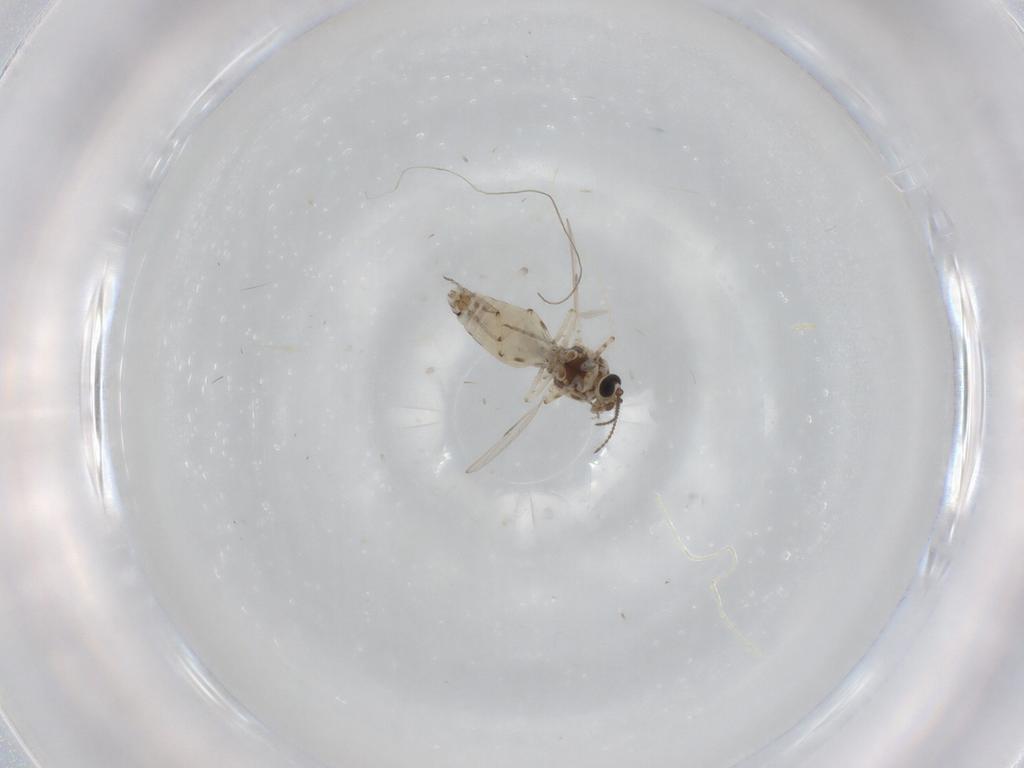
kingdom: Animalia
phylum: Arthropoda
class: Insecta
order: Diptera
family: Ceratopogonidae
